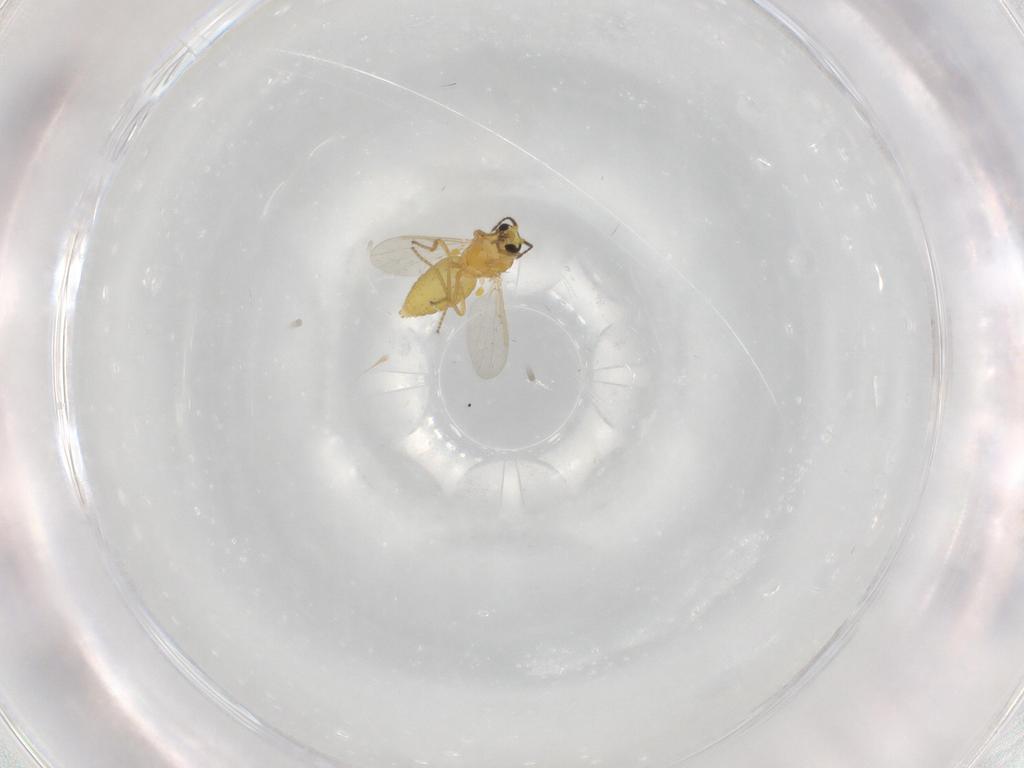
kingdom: Animalia
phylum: Arthropoda
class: Insecta
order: Diptera
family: Ceratopogonidae
